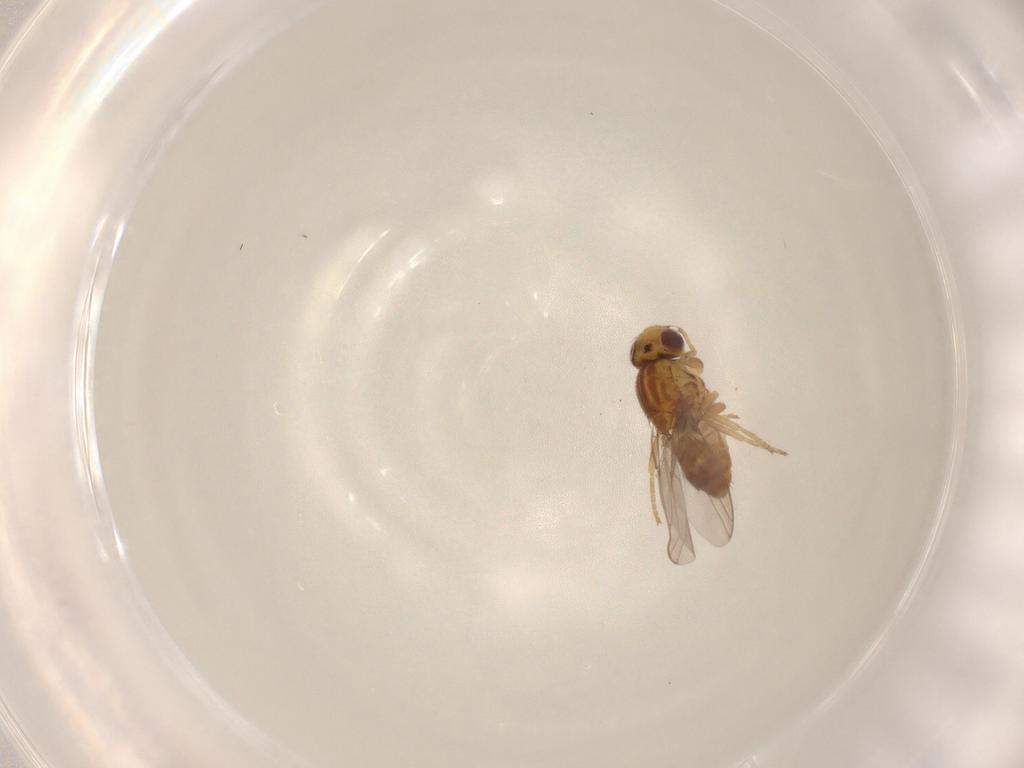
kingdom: Animalia
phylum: Arthropoda
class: Insecta
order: Diptera
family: Chloropidae
